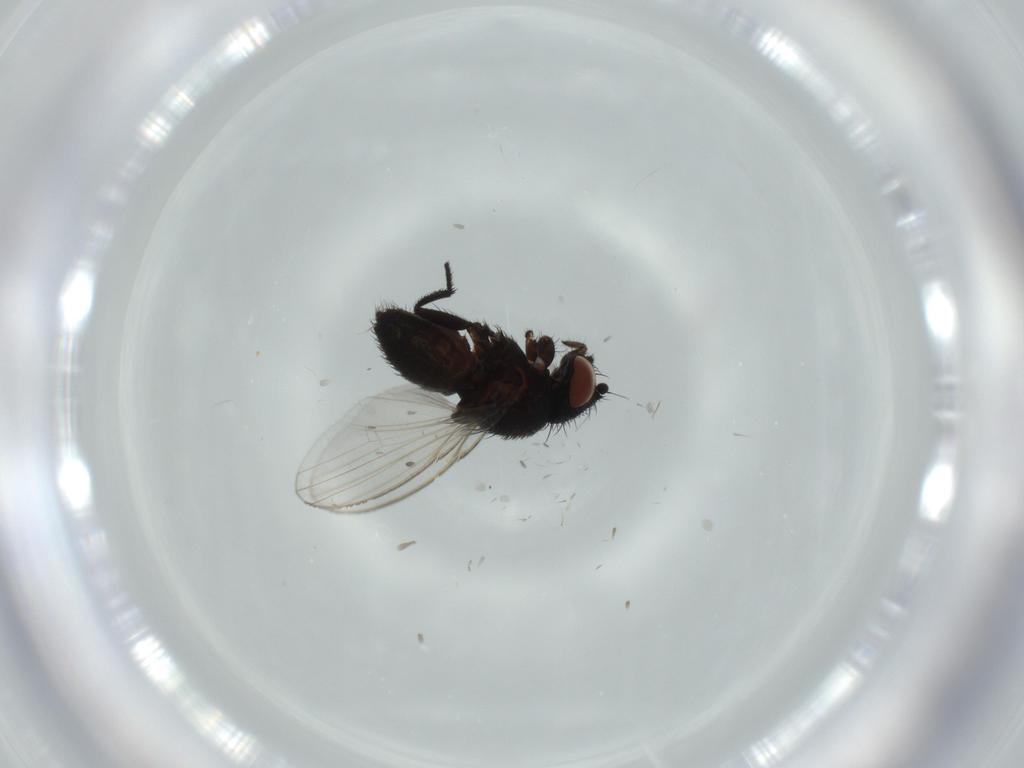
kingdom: Animalia
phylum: Arthropoda
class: Insecta
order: Diptera
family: Milichiidae
